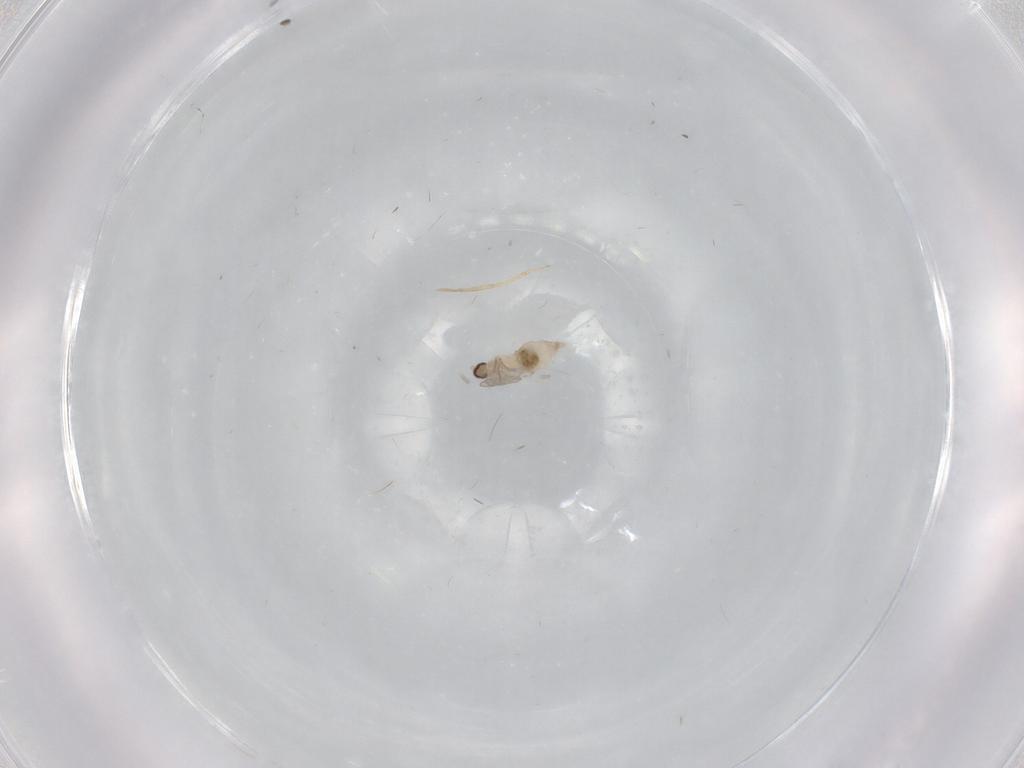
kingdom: Animalia
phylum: Arthropoda
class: Insecta
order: Diptera
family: Cecidomyiidae
